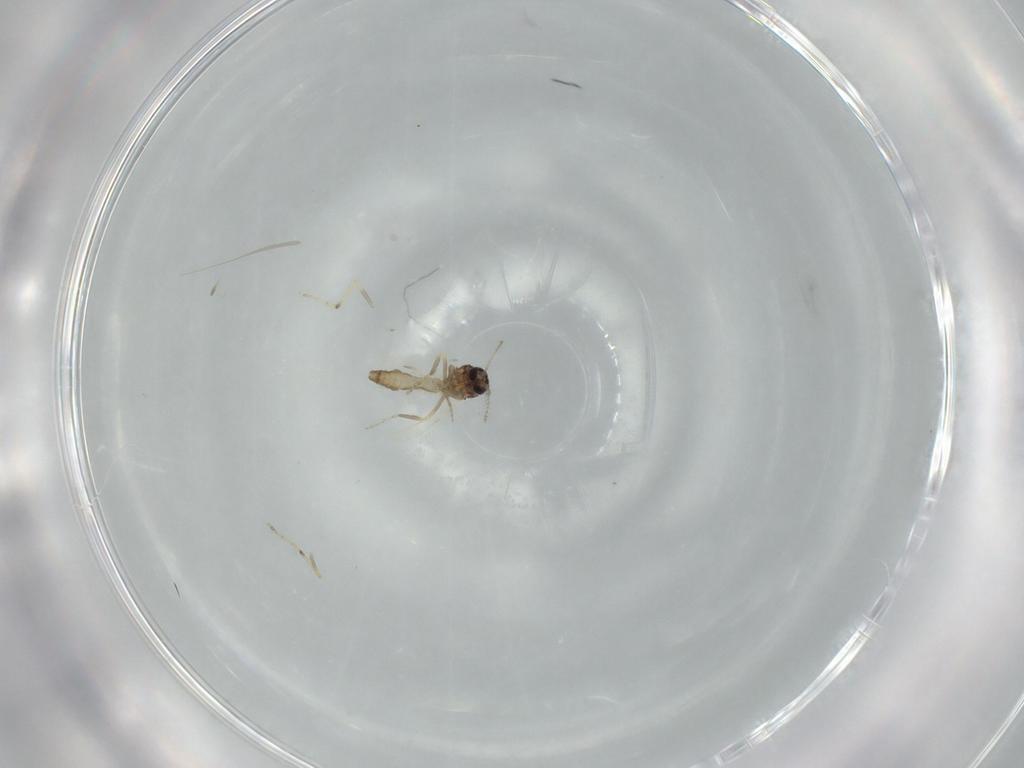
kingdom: Animalia
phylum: Arthropoda
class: Insecta
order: Diptera
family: Ceratopogonidae
